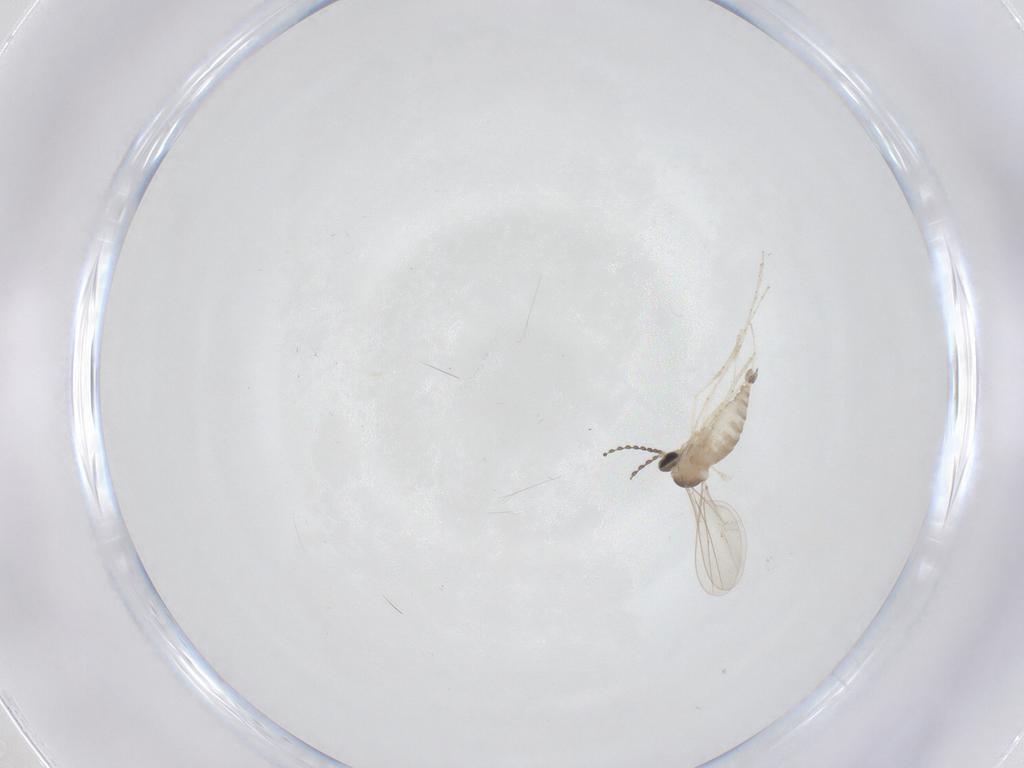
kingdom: Animalia
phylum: Arthropoda
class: Insecta
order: Diptera
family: Cecidomyiidae
